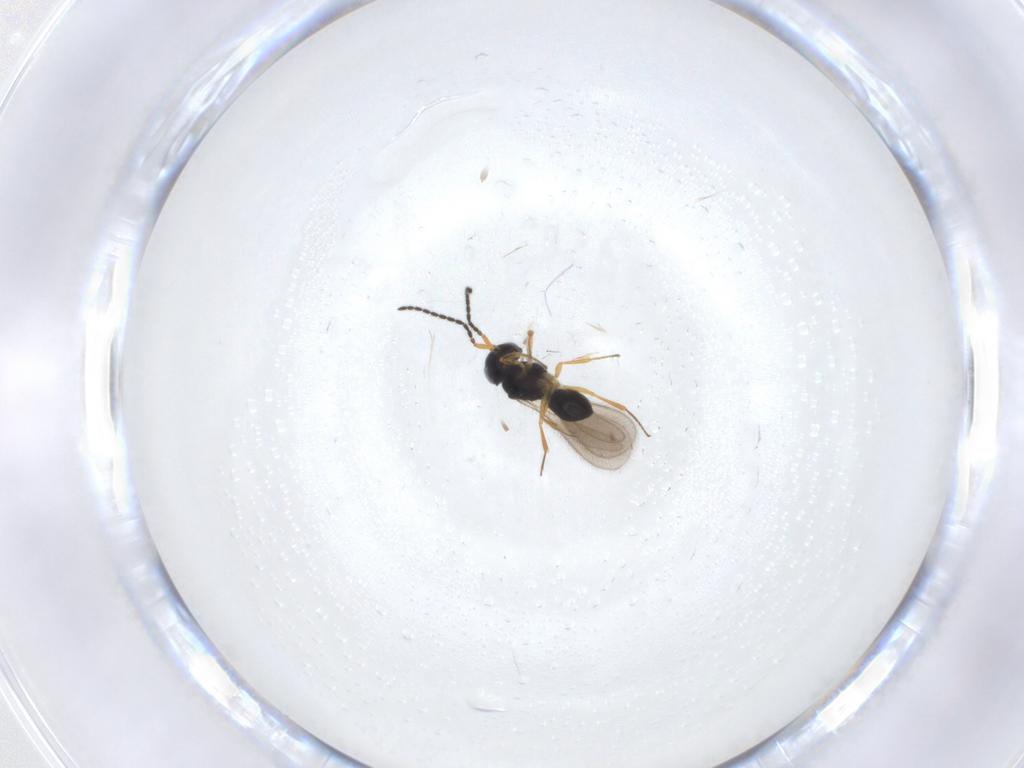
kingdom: Animalia
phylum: Arthropoda
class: Insecta
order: Hymenoptera
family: Scelionidae
